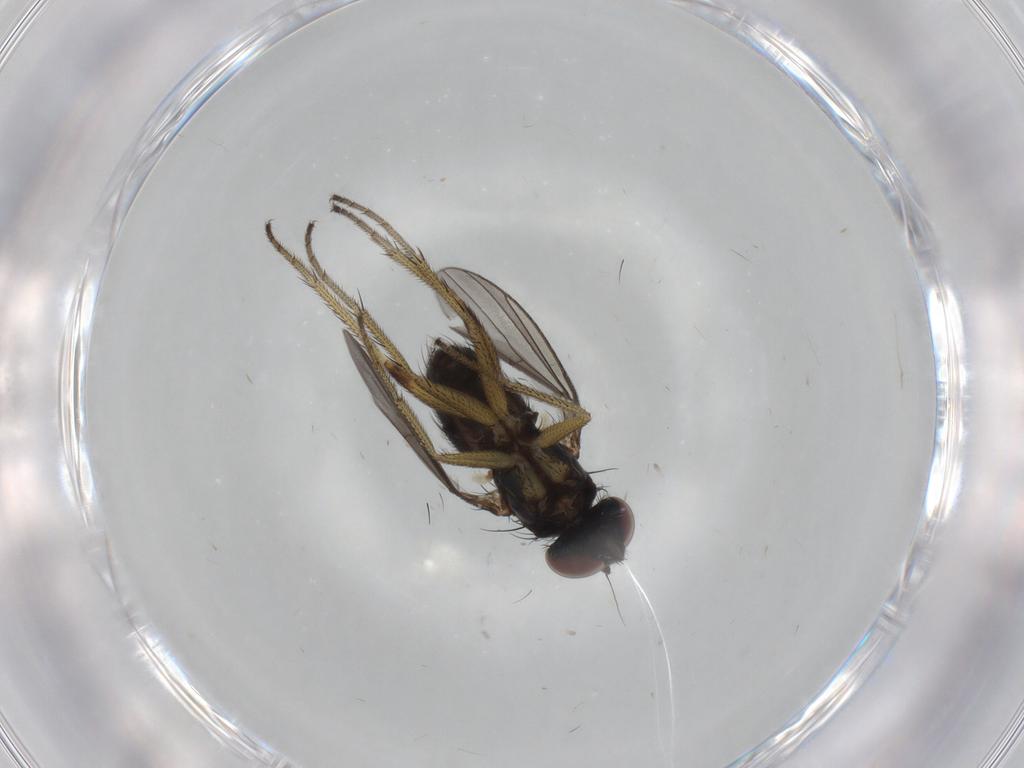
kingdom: Animalia
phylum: Arthropoda
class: Insecta
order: Diptera
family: Dolichopodidae
